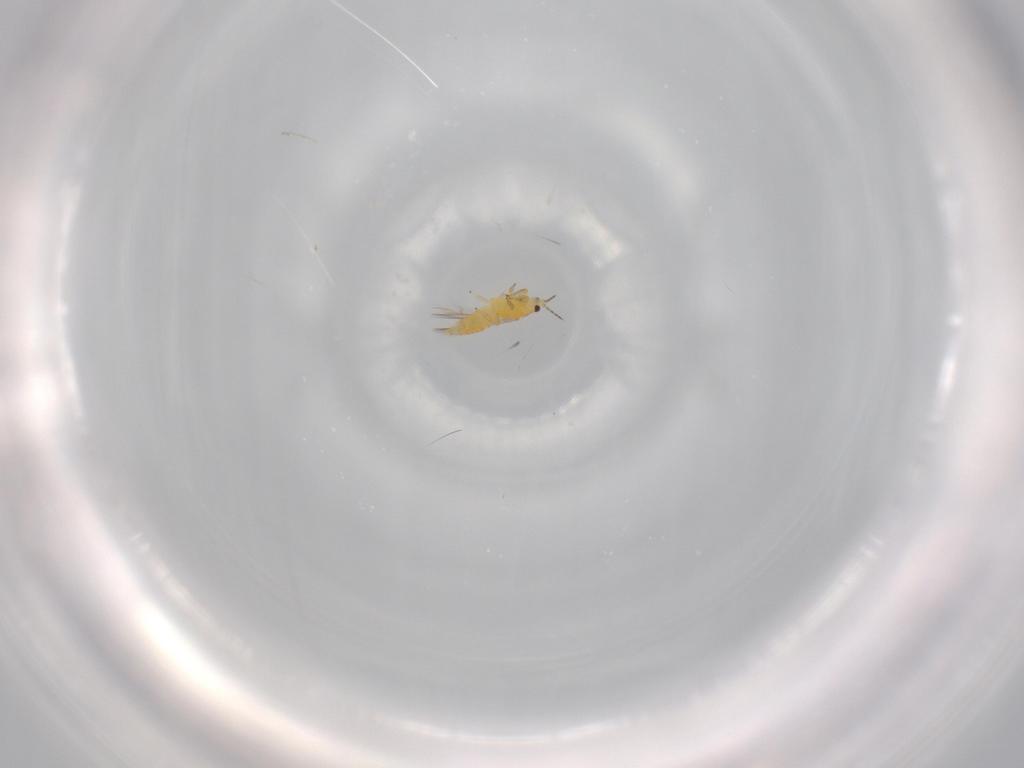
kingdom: Animalia
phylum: Arthropoda
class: Insecta
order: Thysanoptera
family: Thripidae
